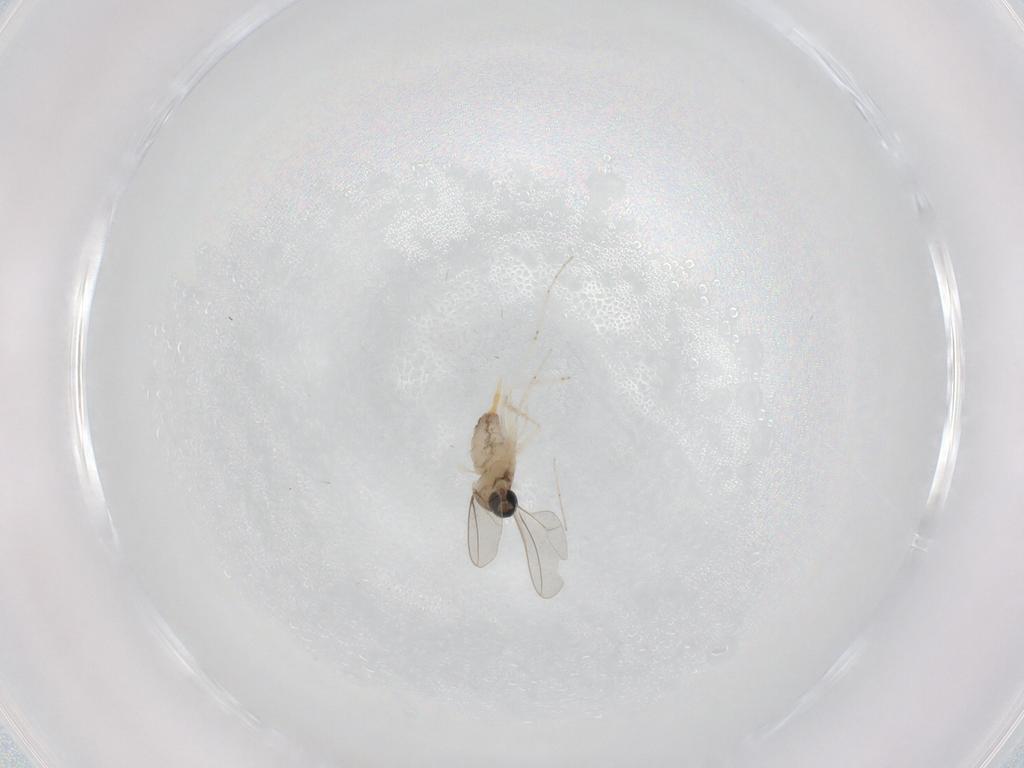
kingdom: Animalia
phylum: Arthropoda
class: Insecta
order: Diptera
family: Cecidomyiidae
